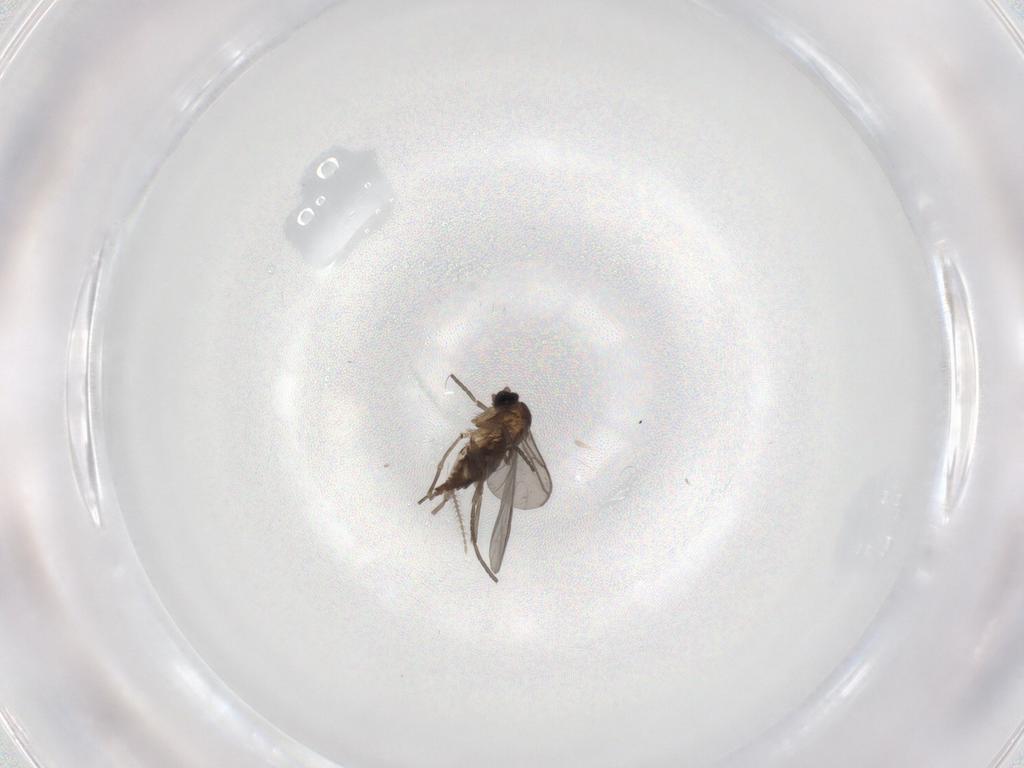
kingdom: Animalia
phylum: Arthropoda
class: Insecta
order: Diptera
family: Ceratopogonidae
